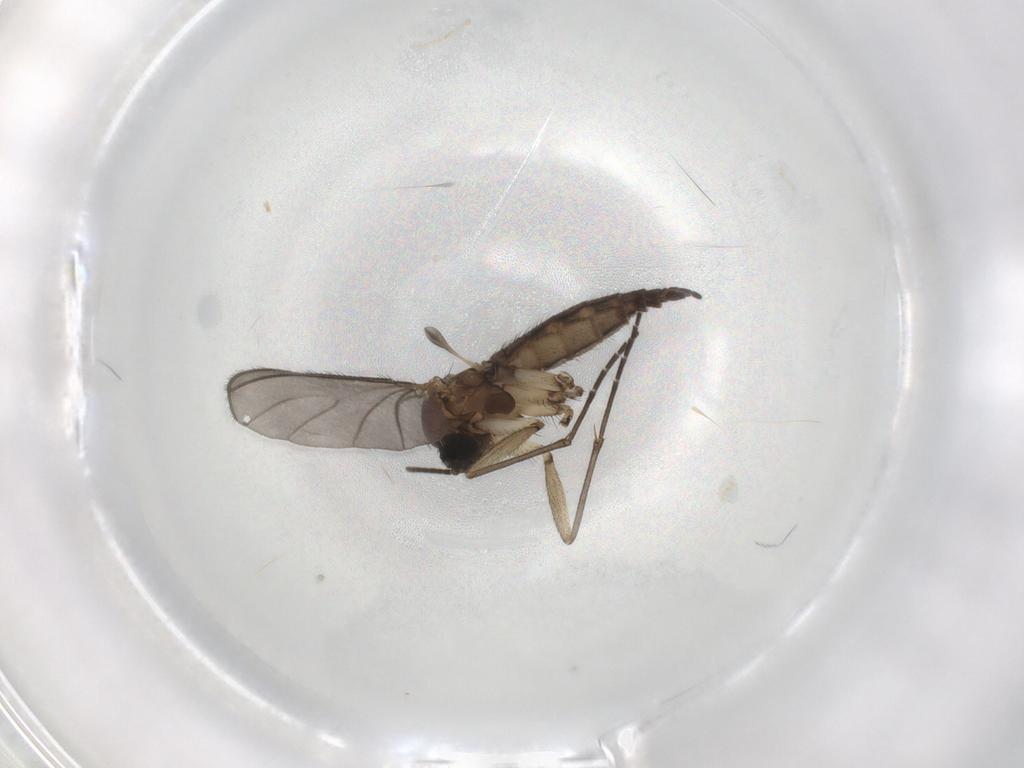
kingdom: Animalia
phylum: Arthropoda
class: Insecta
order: Diptera
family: Sciaridae
